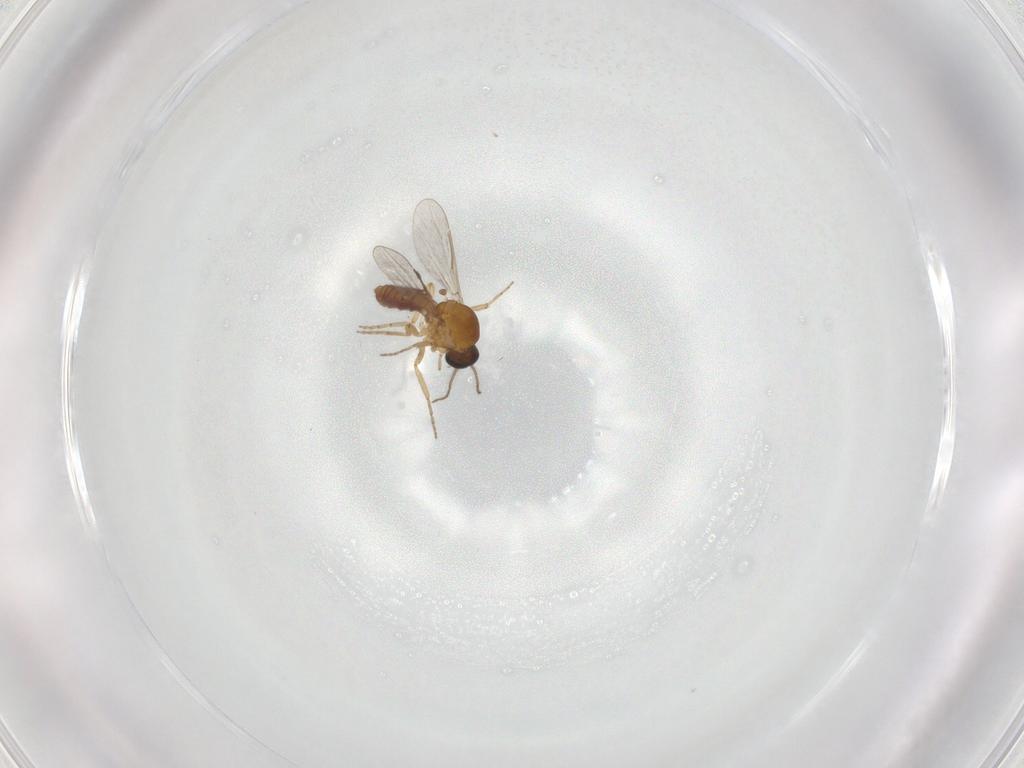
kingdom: Animalia
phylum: Arthropoda
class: Insecta
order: Diptera
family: Ceratopogonidae
